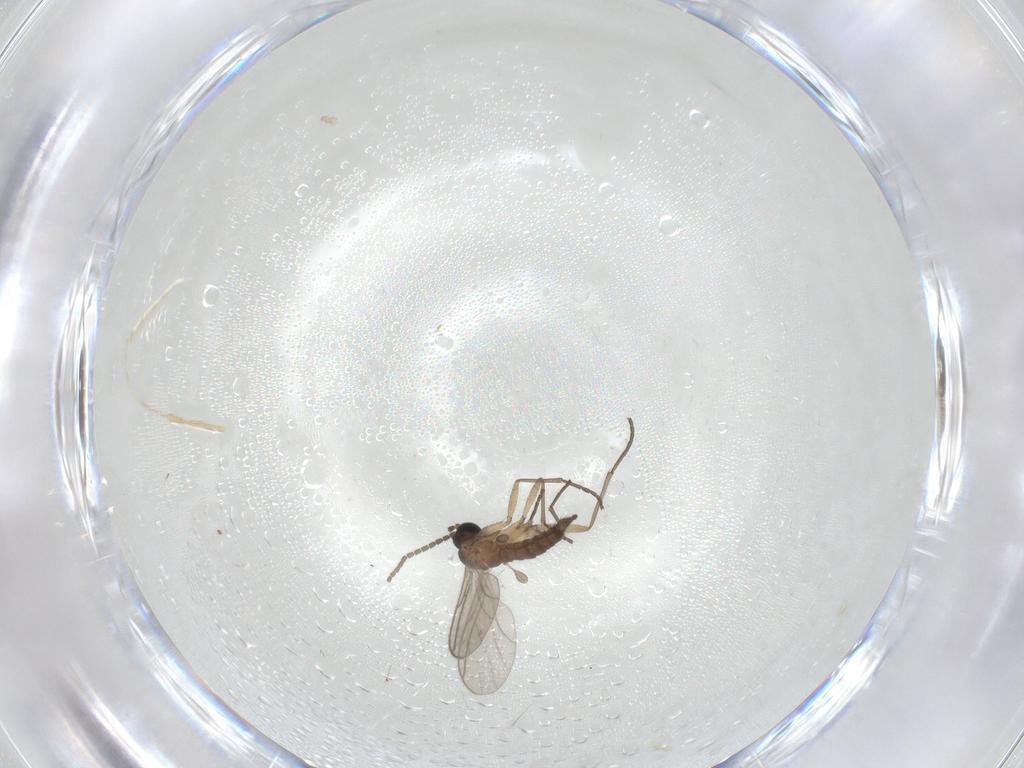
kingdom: Animalia
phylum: Arthropoda
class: Insecta
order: Diptera
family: Sciaridae
